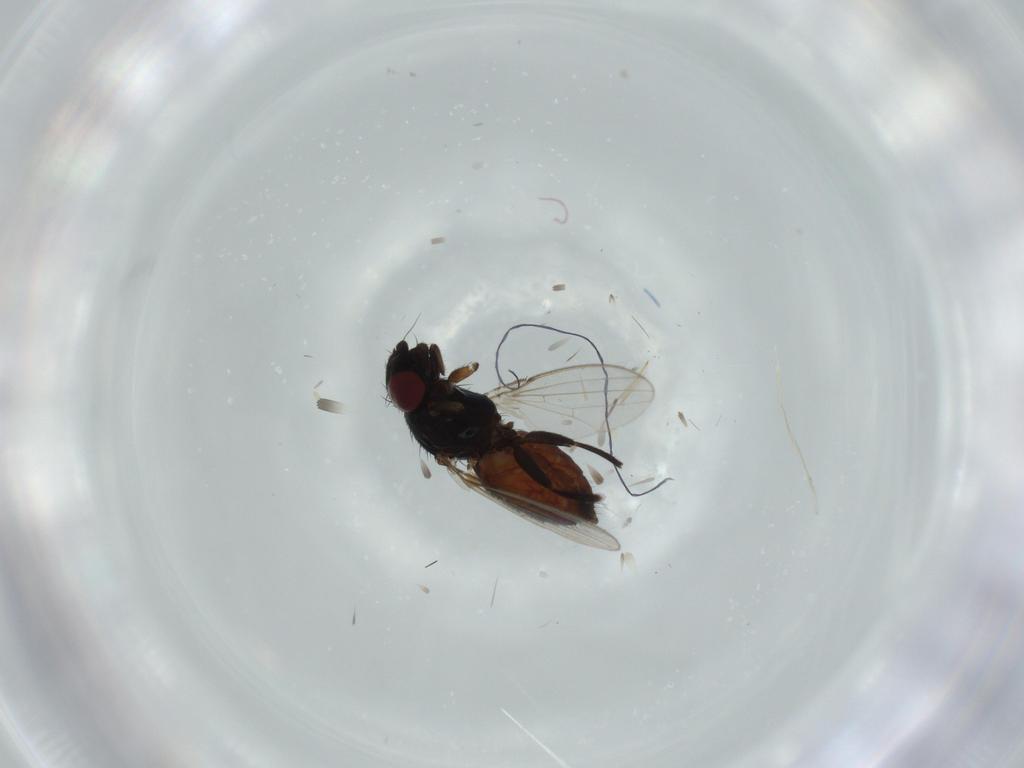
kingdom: Animalia
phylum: Arthropoda
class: Insecta
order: Diptera
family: Milichiidae
